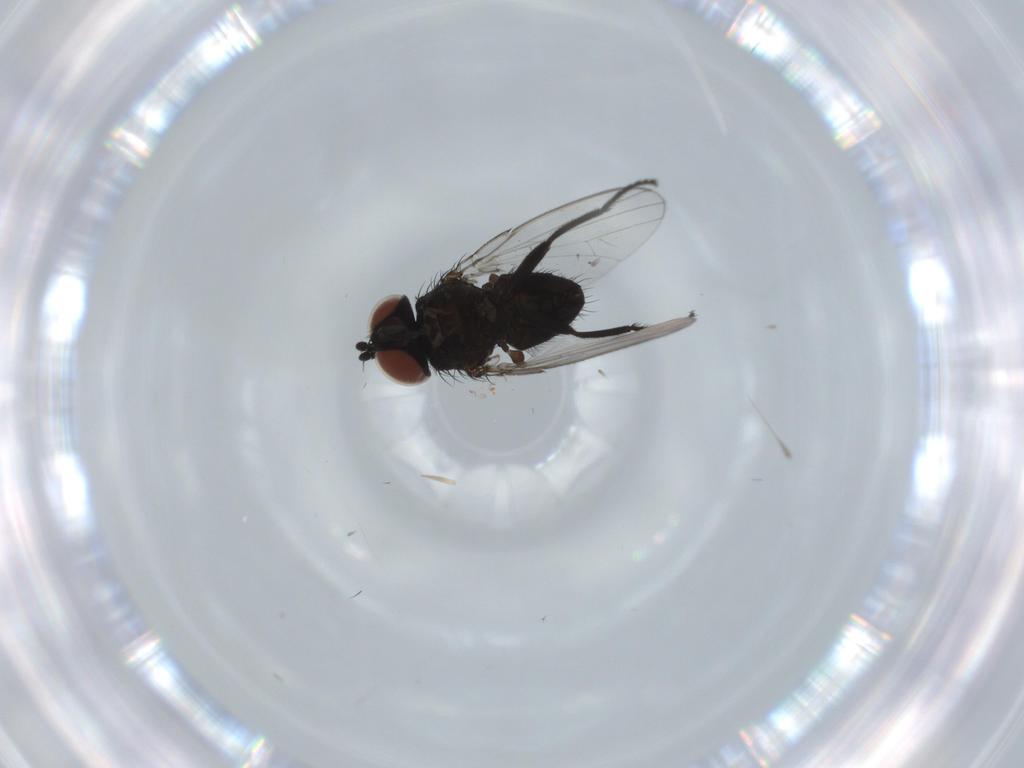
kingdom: Animalia
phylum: Arthropoda
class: Insecta
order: Diptera
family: Milichiidae
